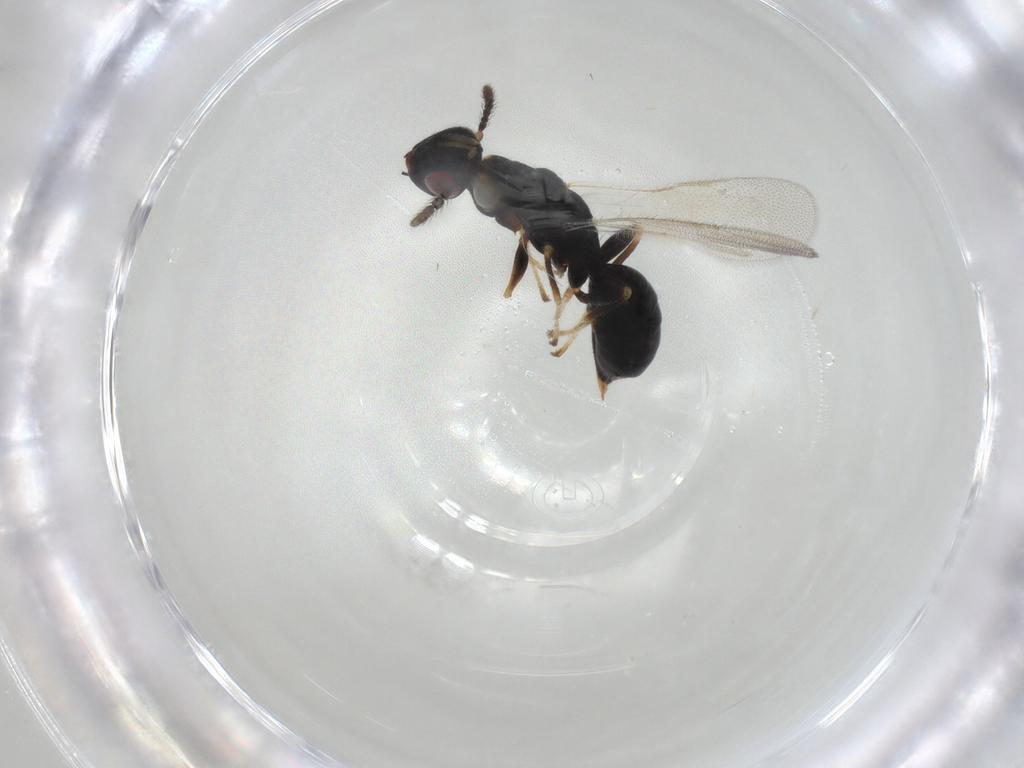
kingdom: Animalia
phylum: Arthropoda
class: Insecta
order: Hymenoptera
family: Eurytomidae
